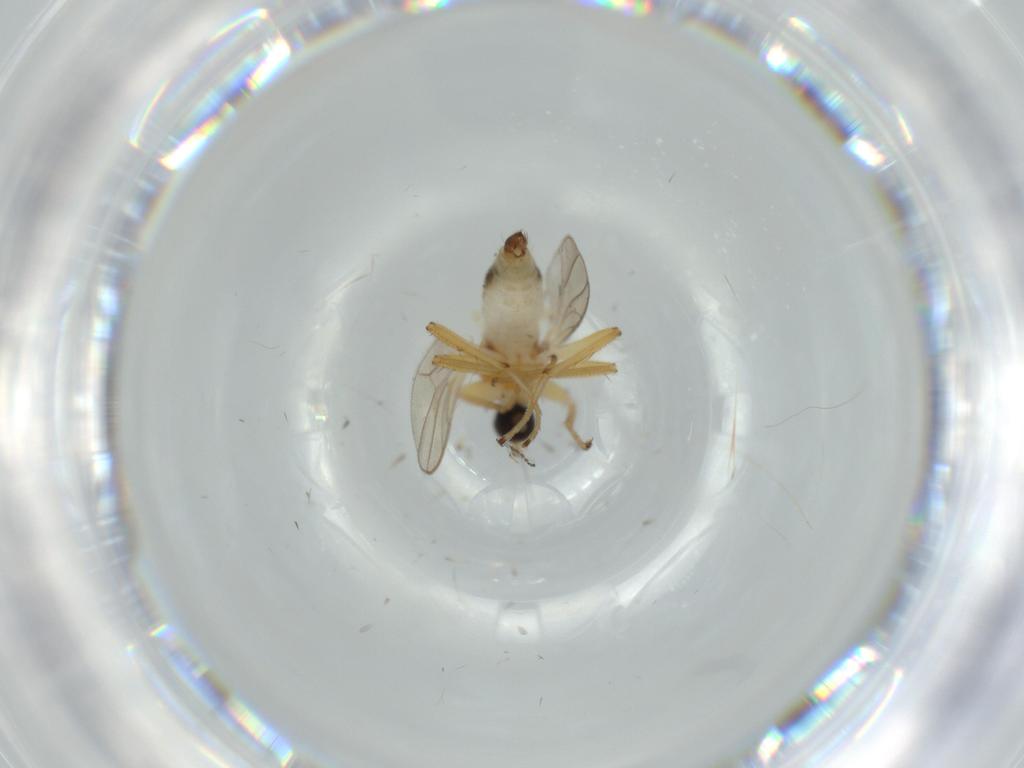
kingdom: Animalia
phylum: Arthropoda
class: Insecta
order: Diptera
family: Hybotidae
